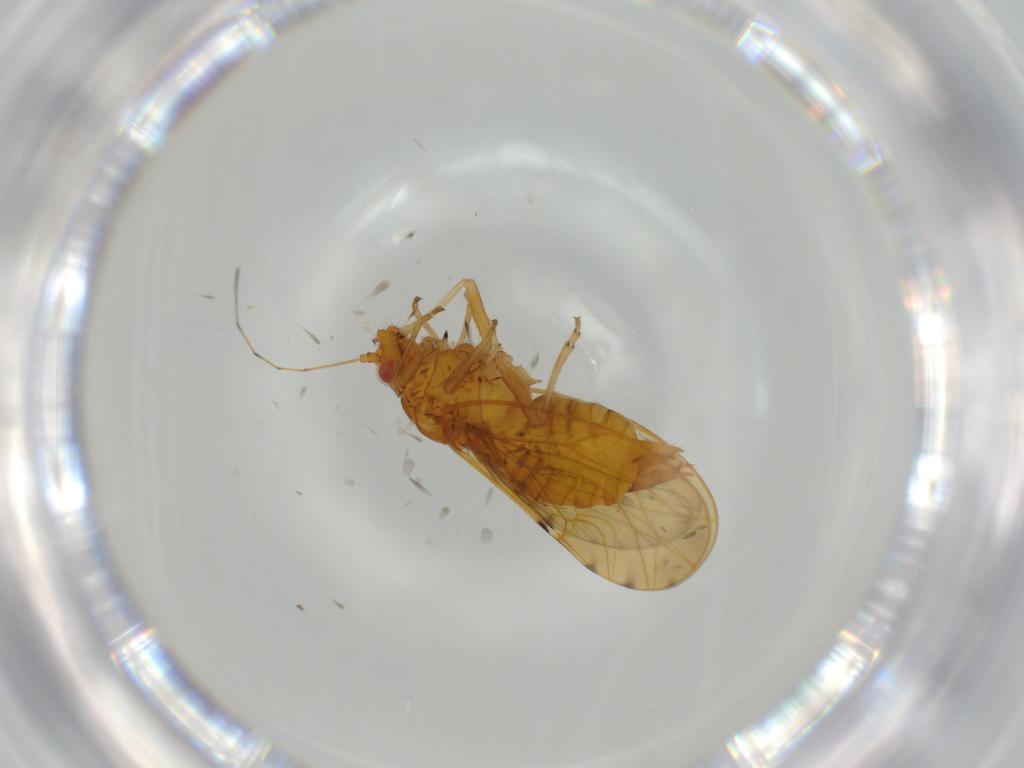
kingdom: Animalia
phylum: Arthropoda
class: Insecta
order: Hemiptera
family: Psylloidea_incertae_sedis
